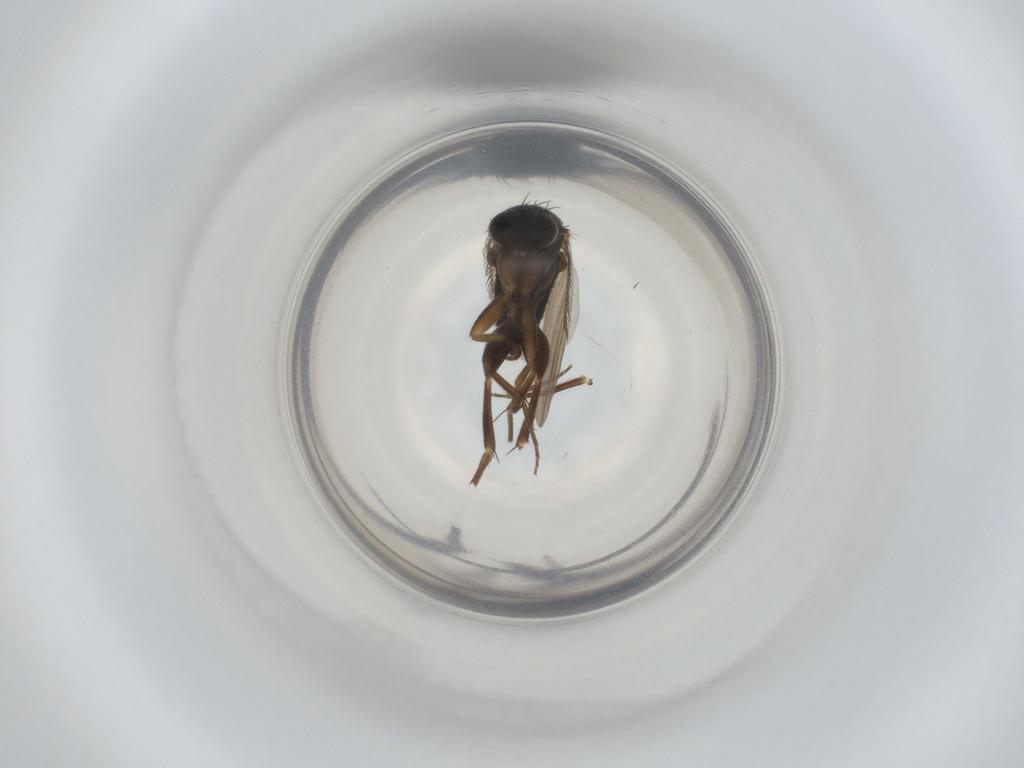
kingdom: Animalia
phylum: Arthropoda
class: Insecta
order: Diptera
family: Phoridae
